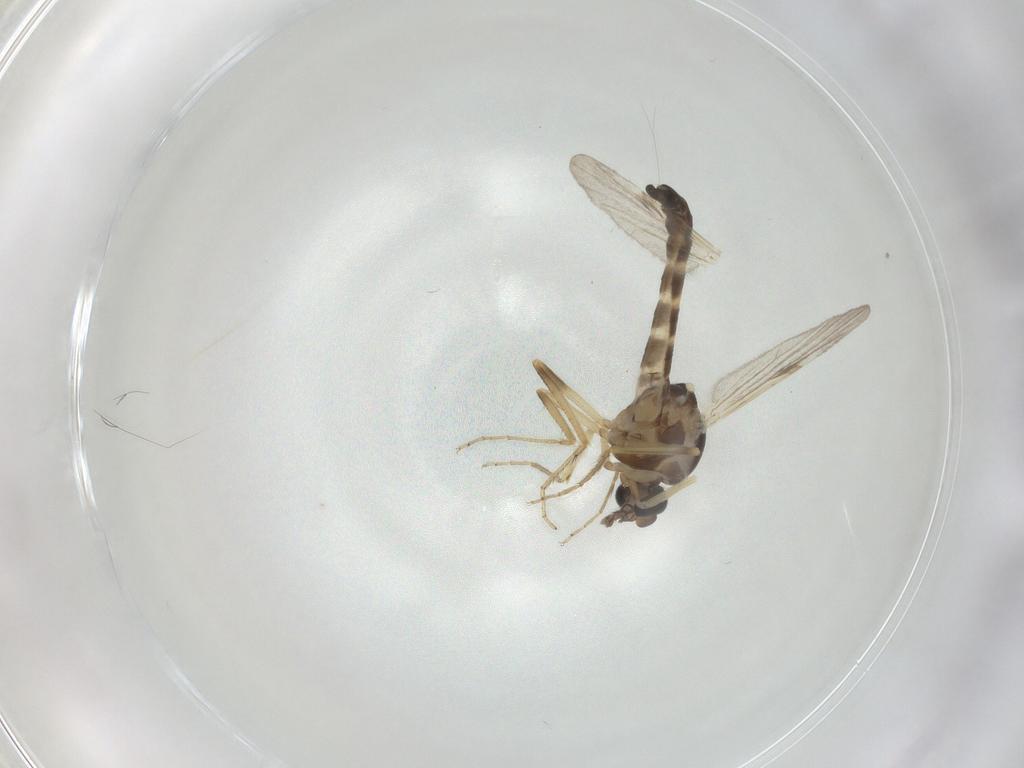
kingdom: Animalia
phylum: Arthropoda
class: Insecta
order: Diptera
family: Ceratopogonidae
